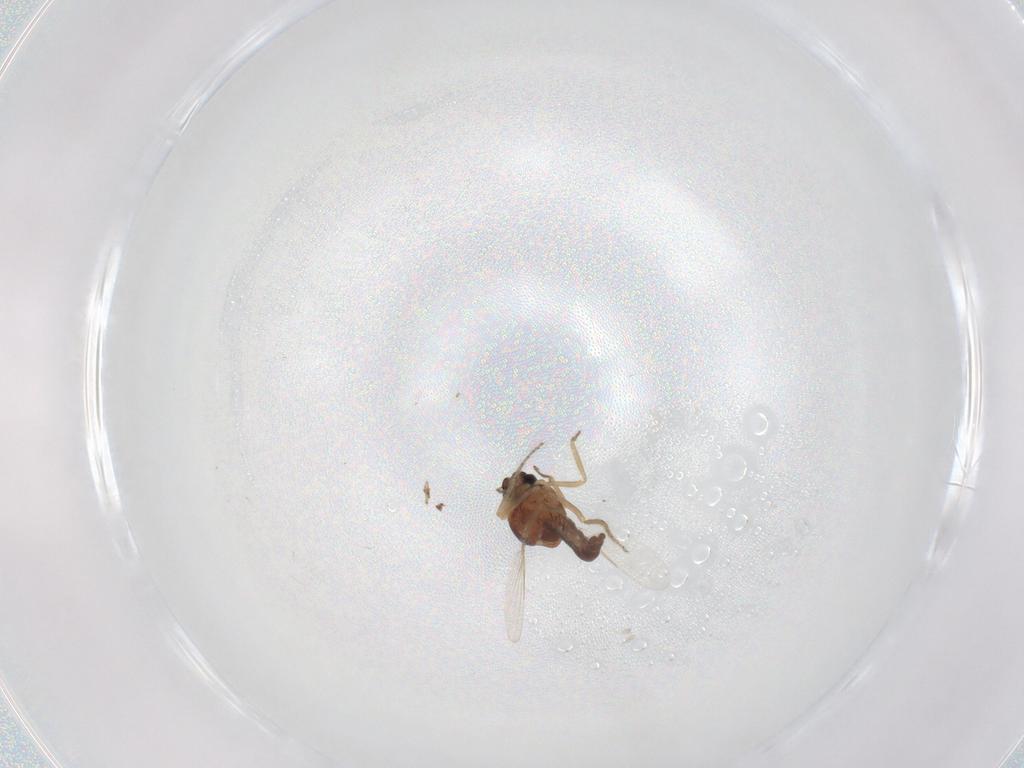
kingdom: Animalia
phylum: Arthropoda
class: Insecta
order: Diptera
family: Ceratopogonidae
